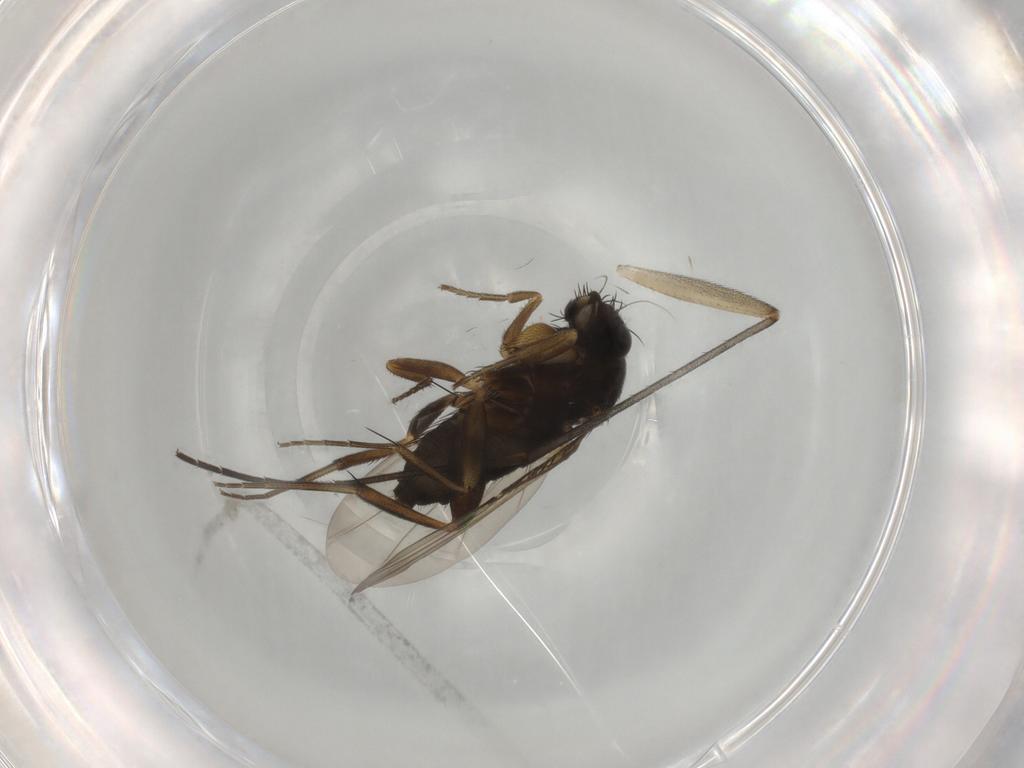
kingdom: Animalia
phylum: Arthropoda
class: Insecta
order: Diptera
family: Phoridae
